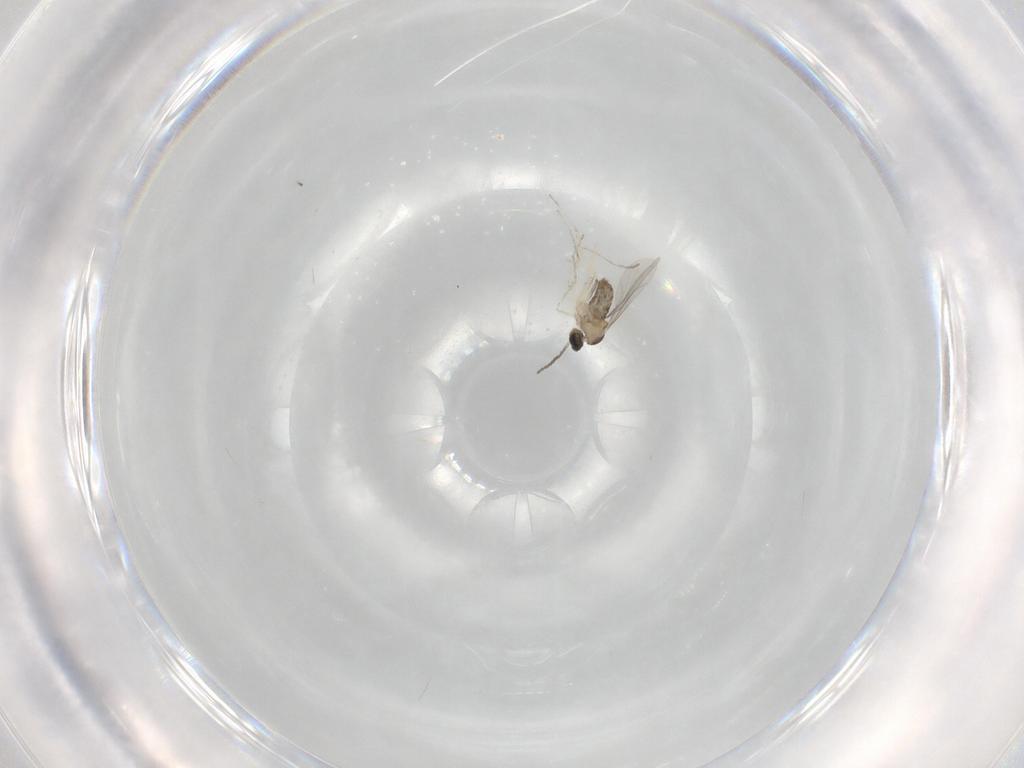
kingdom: Animalia
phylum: Arthropoda
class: Insecta
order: Diptera
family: Cecidomyiidae
